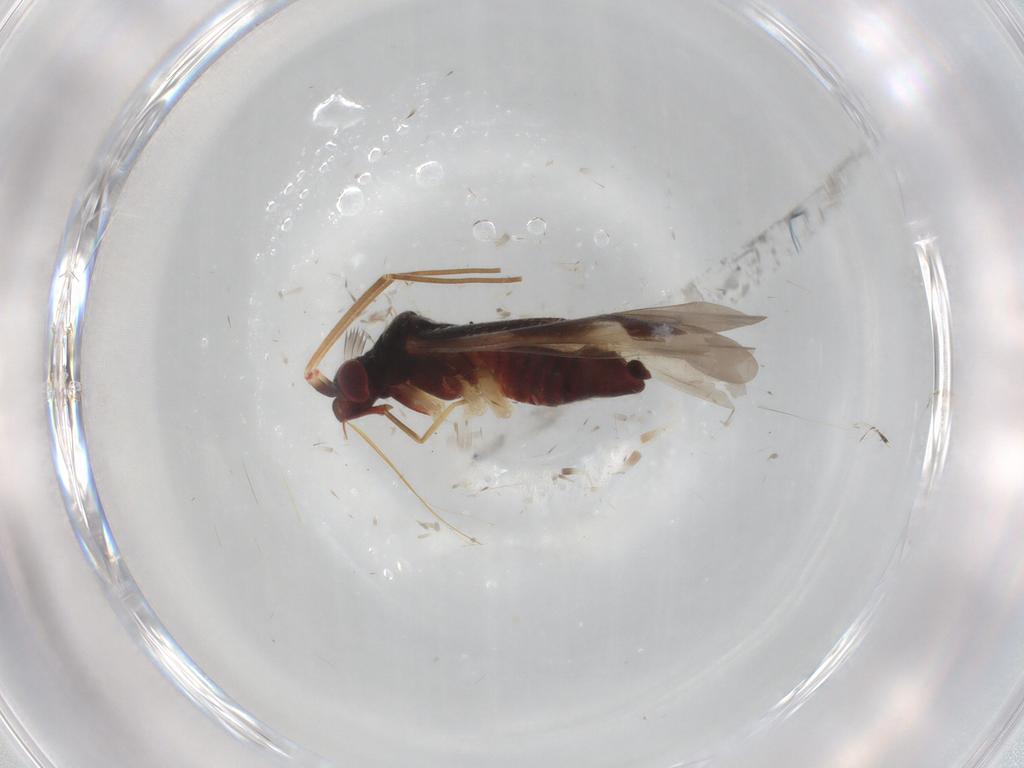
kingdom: Animalia
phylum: Arthropoda
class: Insecta
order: Hemiptera
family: Miridae
